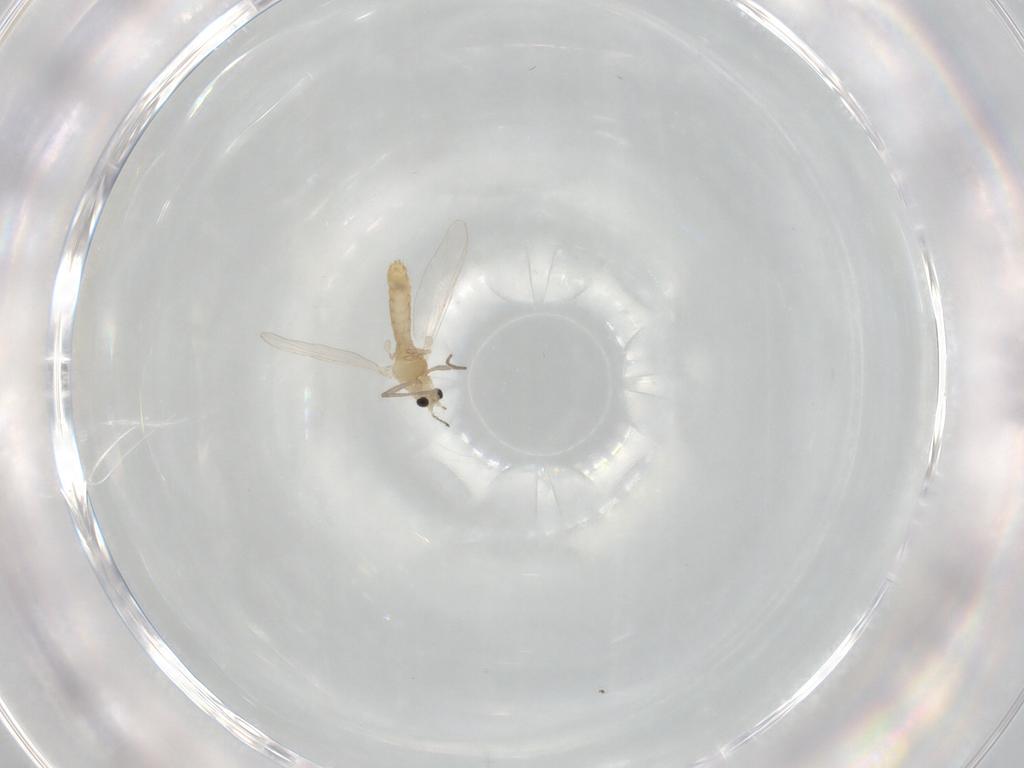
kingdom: Animalia
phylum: Arthropoda
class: Insecta
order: Diptera
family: Chironomidae
